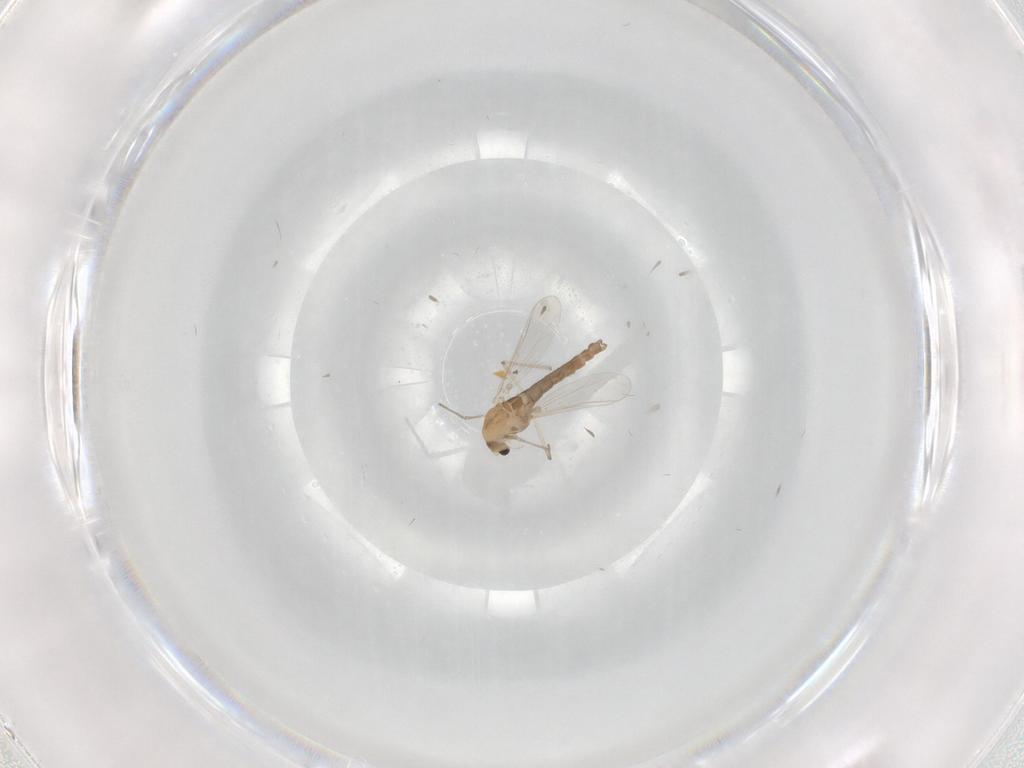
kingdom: Animalia
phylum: Arthropoda
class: Insecta
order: Diptera
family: Chironomidae
